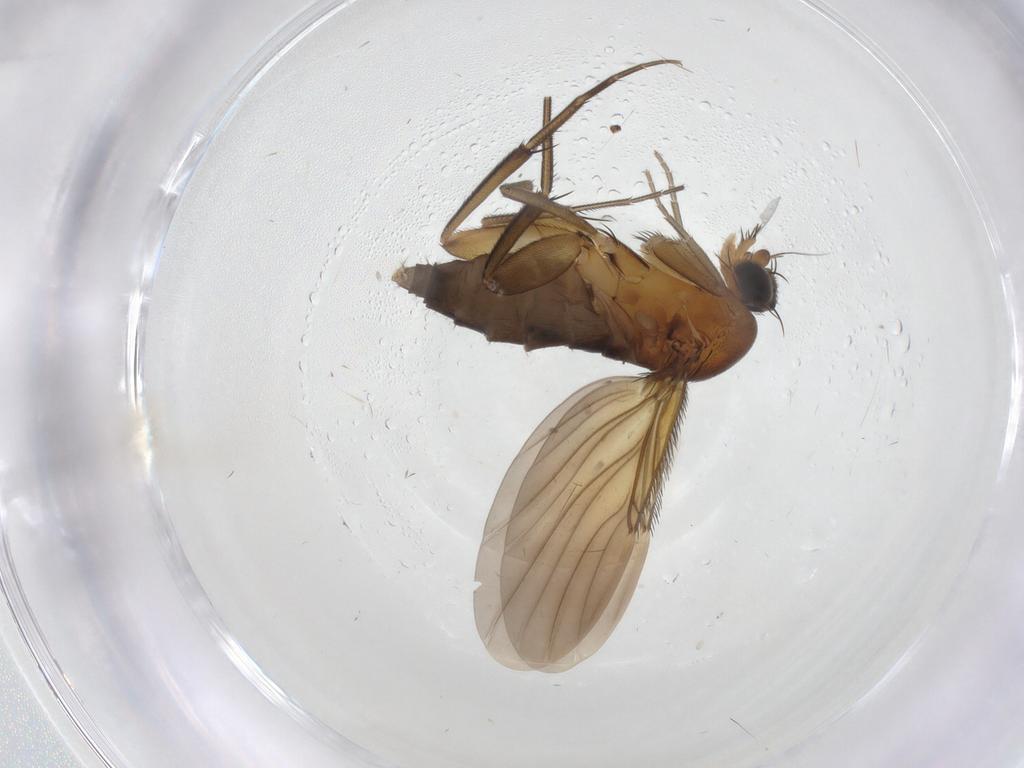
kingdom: Animalia
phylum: Arthropoda
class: Insecta
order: Diptera
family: Phoridae
